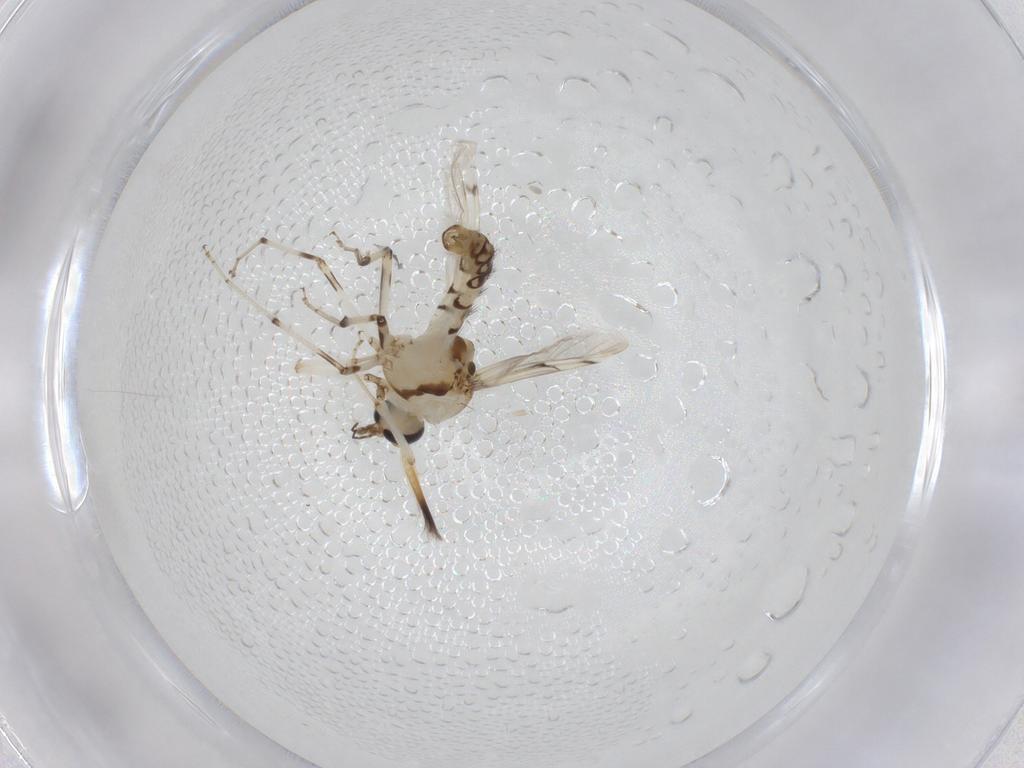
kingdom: Animalia
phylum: Arthropoda
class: Insecta
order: Diptera
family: Ceratopogonidae
